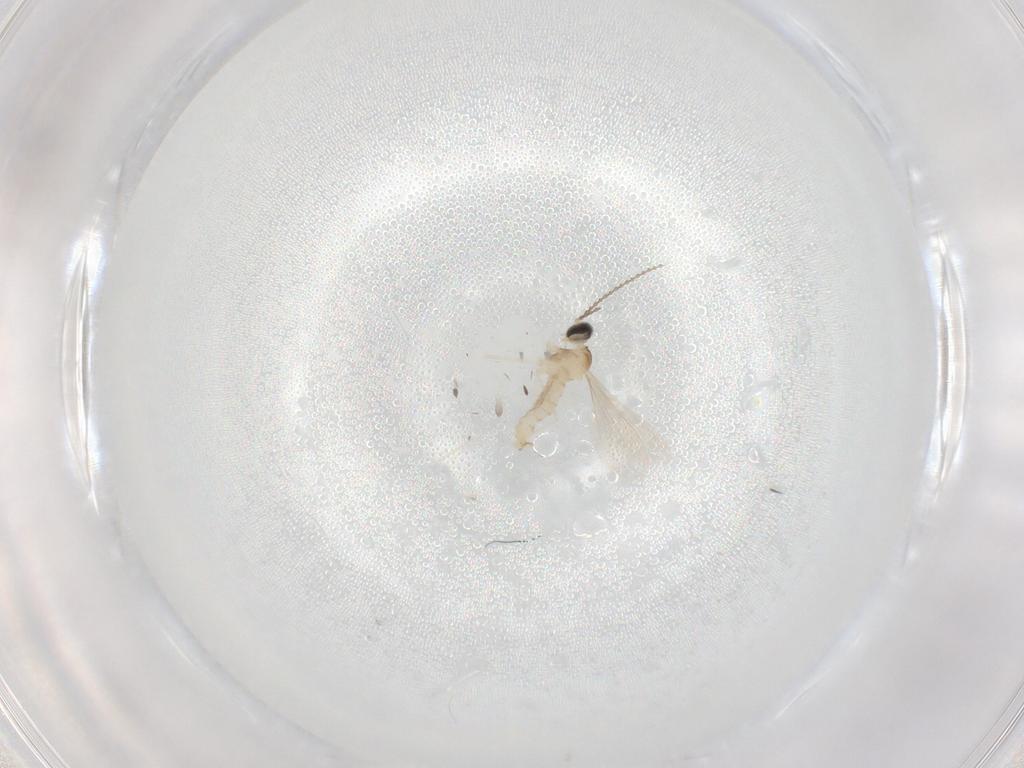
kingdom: Animalia
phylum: Arthropoda
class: Insecta
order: Diptera
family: Cecidomyiidae
